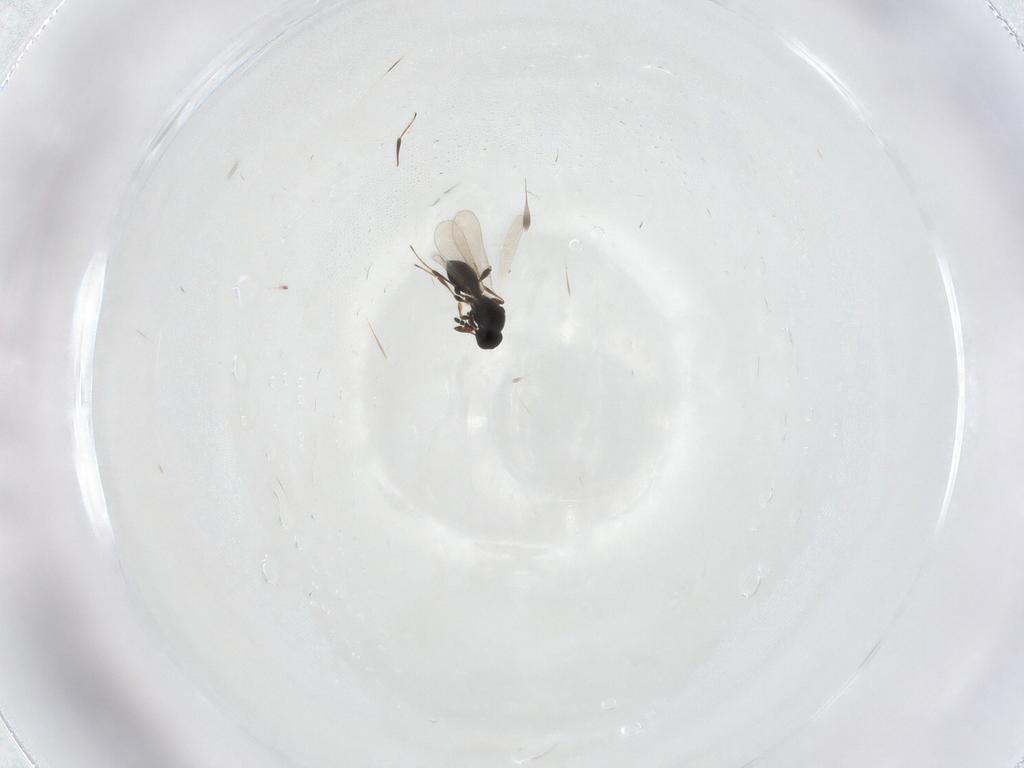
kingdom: Animalia
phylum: Arthropoda
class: Insecta
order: Hymenoptera
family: Platygastridae
